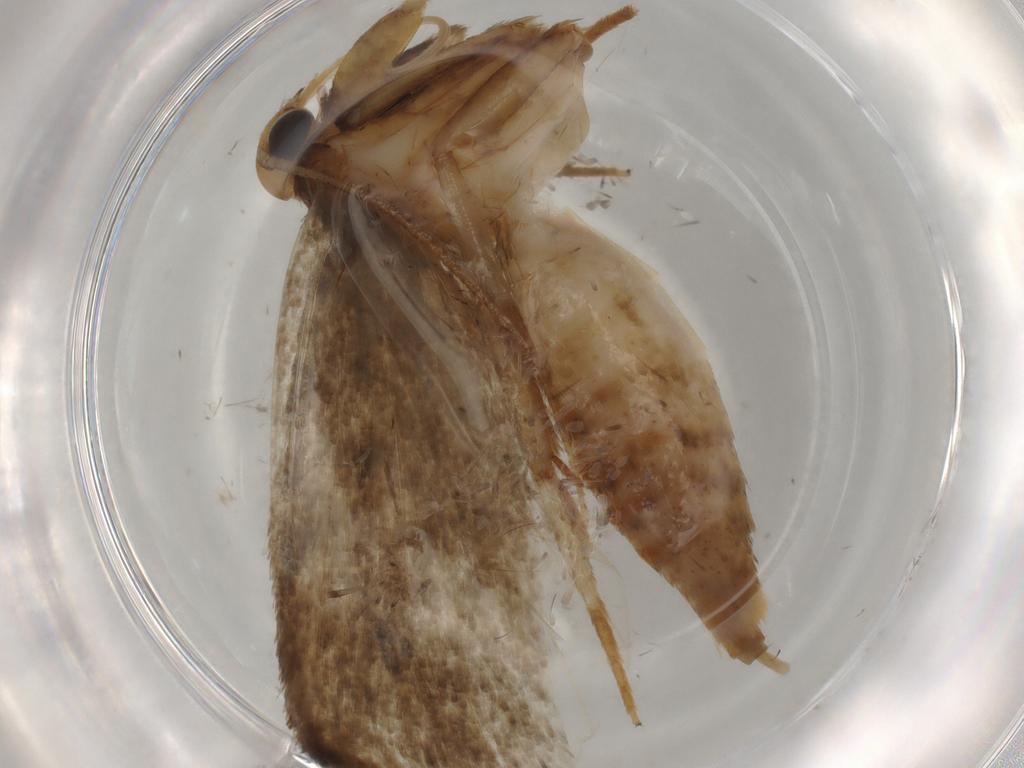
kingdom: Animalia
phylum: Arthropoda
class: Insecta
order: Lepidoptera
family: Oecophoridae
